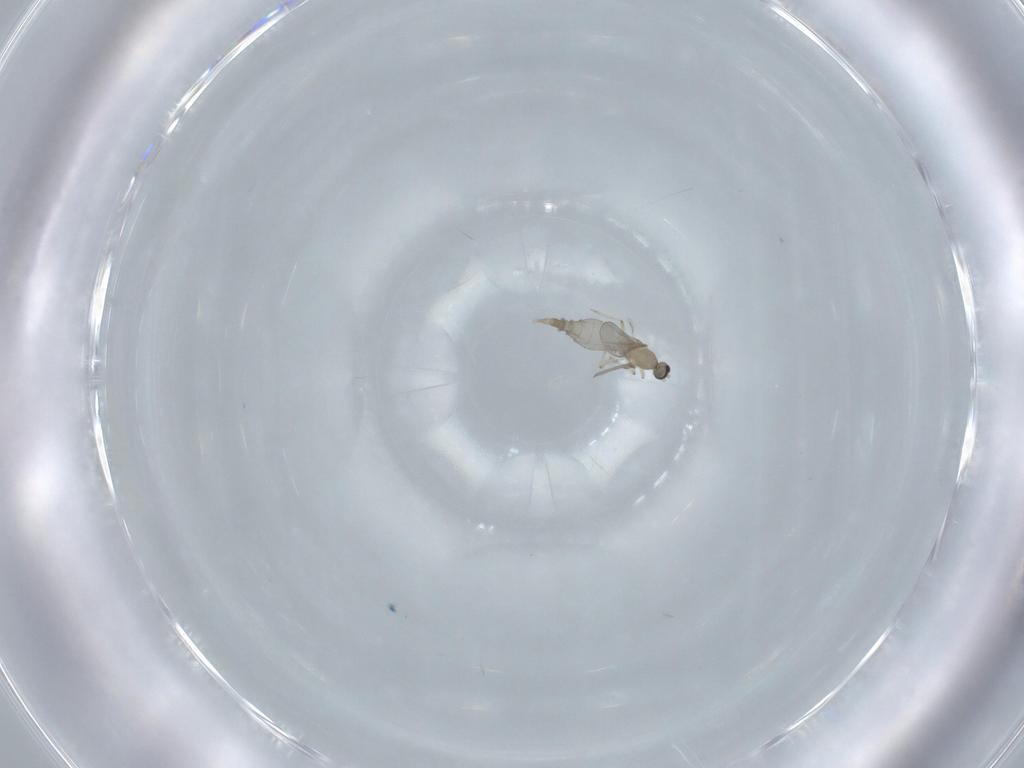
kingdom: Animalia
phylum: Arthropoda
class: Insecta
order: Diptera
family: Cecidomyiidae
